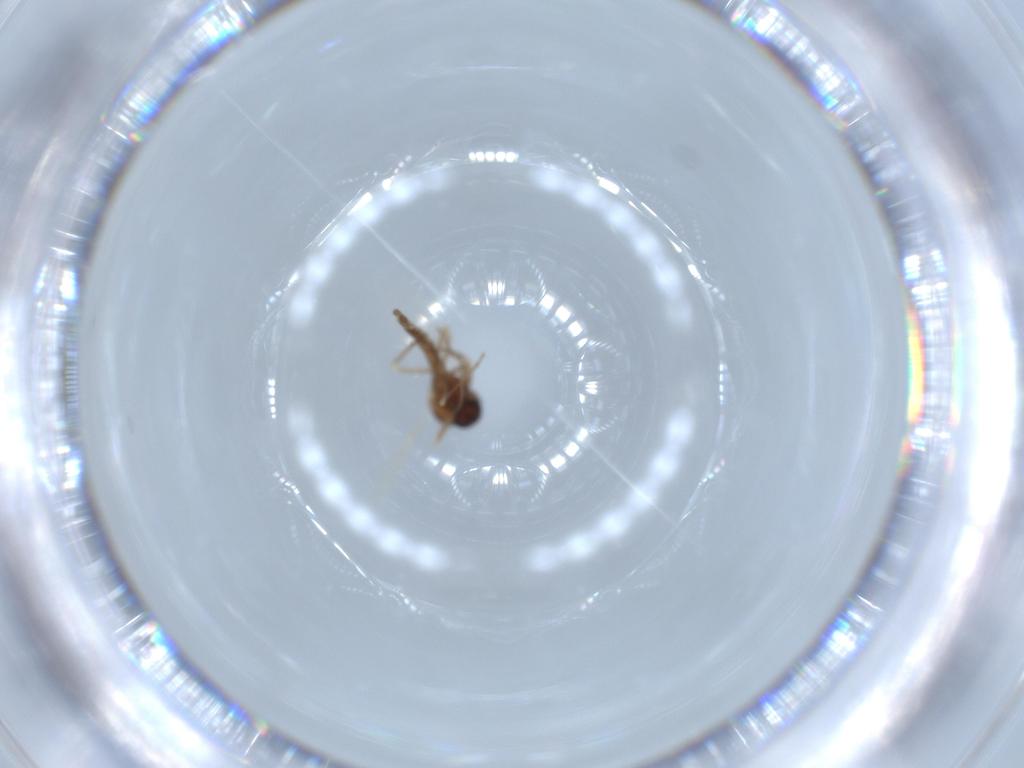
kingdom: Animalia
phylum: Arthropoda
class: Insecta
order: Diptera
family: Ceratopogonidae
